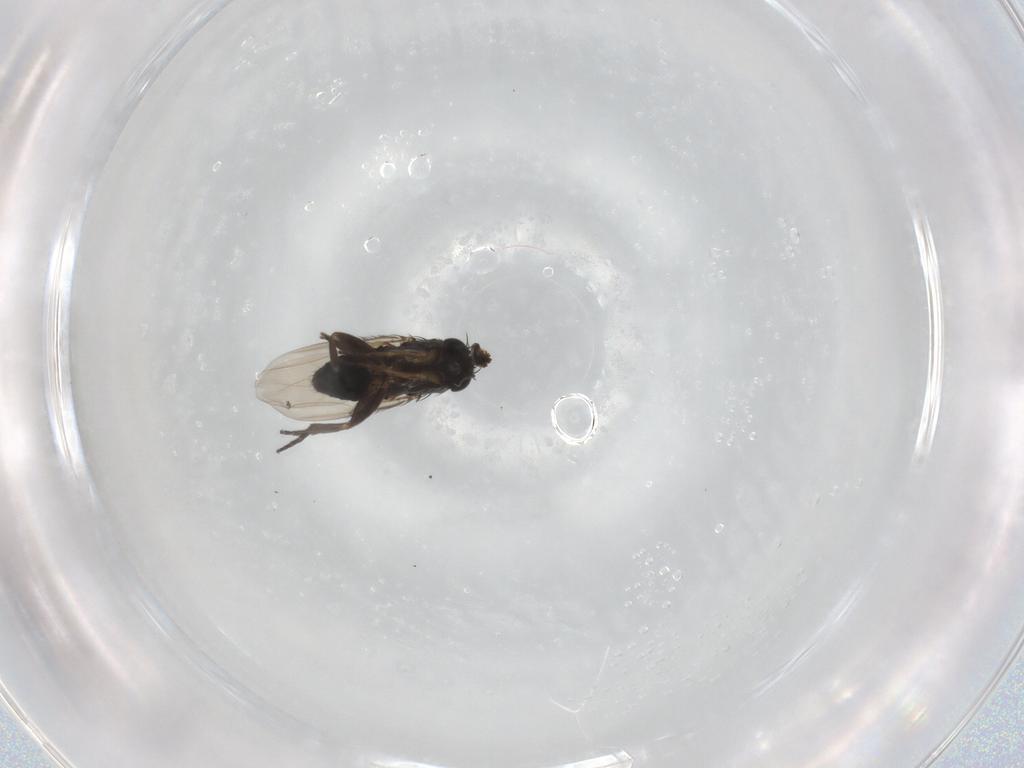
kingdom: Animalia
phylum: Arthropoda
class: Insecta
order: Diptera
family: Phoridae
